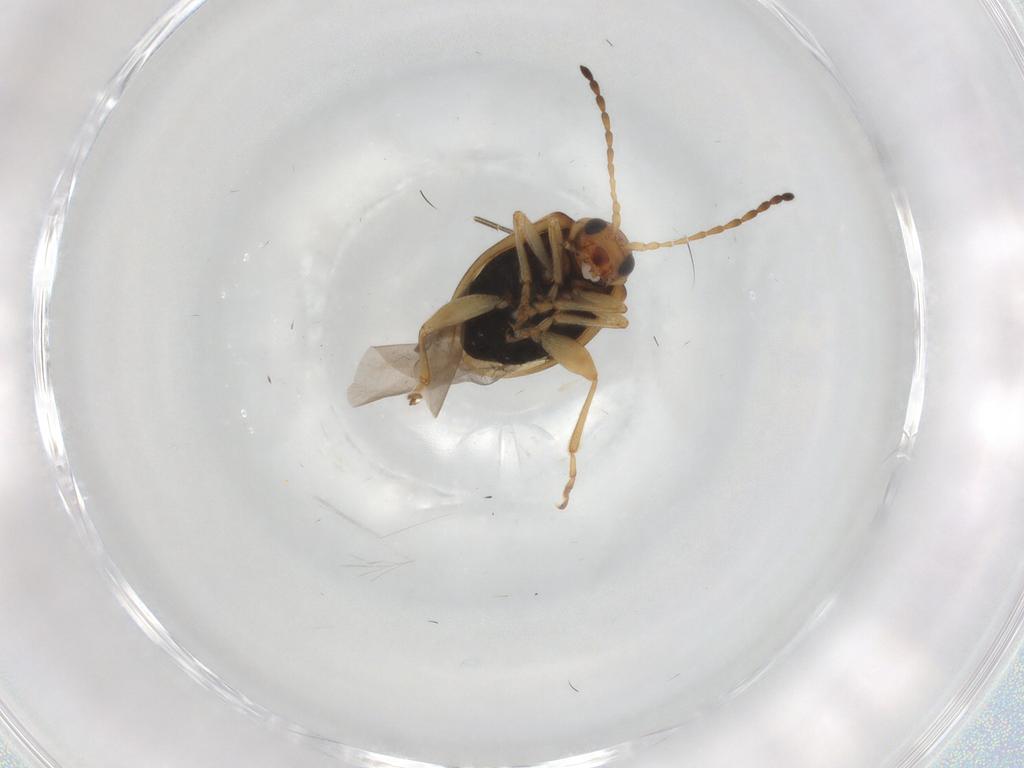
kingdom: Animalia
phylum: Arthropoda
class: Insecta
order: Coleoptera
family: Chrysomelidae
